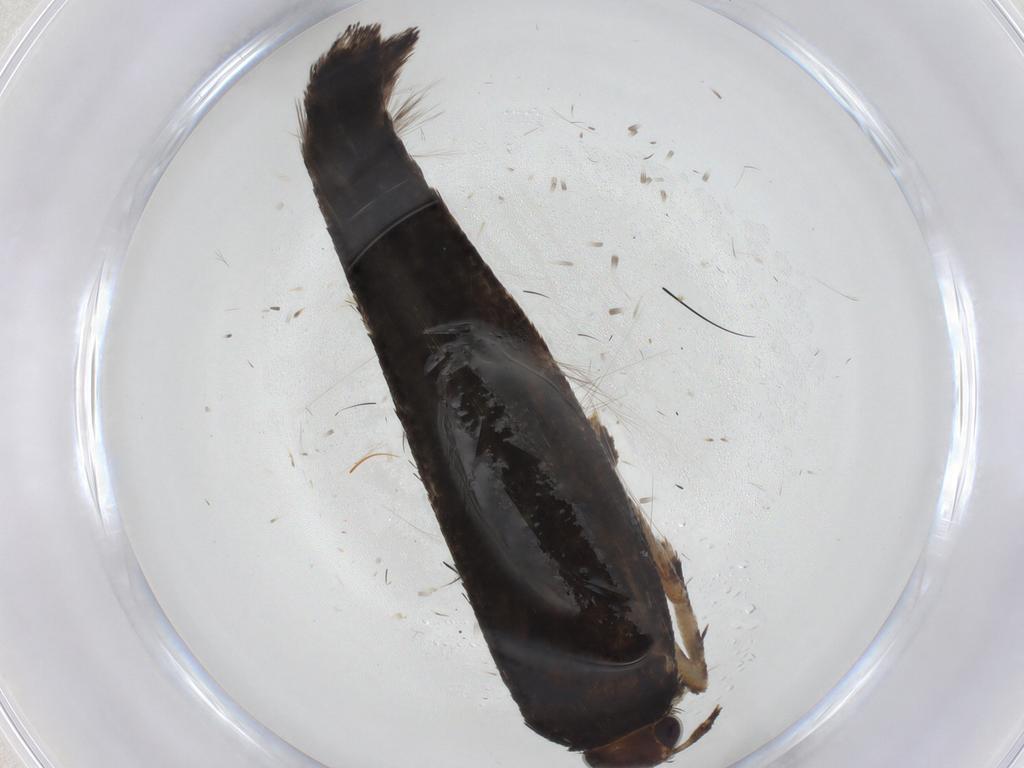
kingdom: Animalia
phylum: Arthropoda
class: Insecta
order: Lepidoptera
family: Gelechiidae
